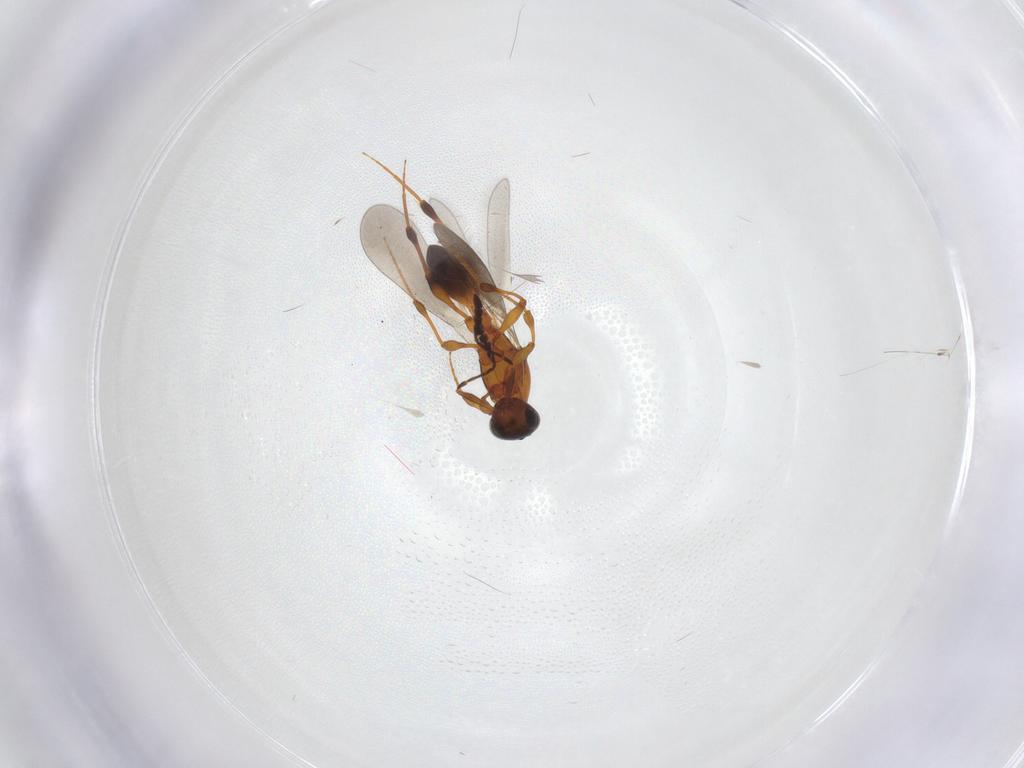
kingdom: Animalia
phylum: Arthropoda
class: Insecta
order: Hymenoptera
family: Platygastridae
